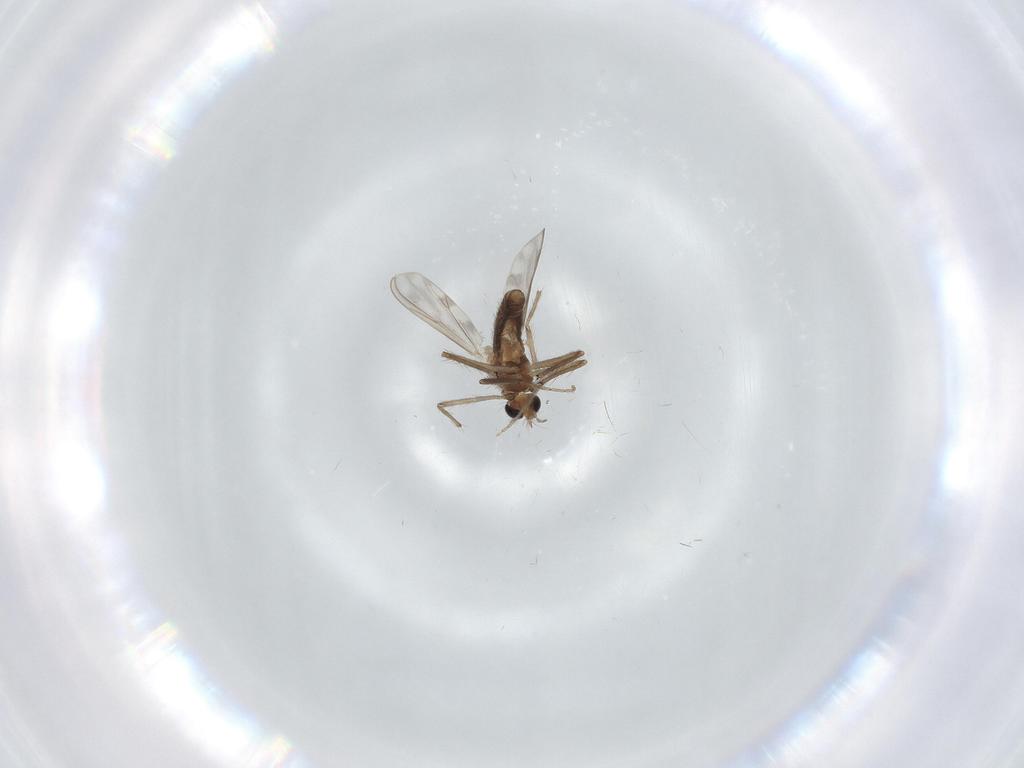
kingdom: Animalia
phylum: Arthropoda
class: Insecta
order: Diptera
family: Chironomidae
